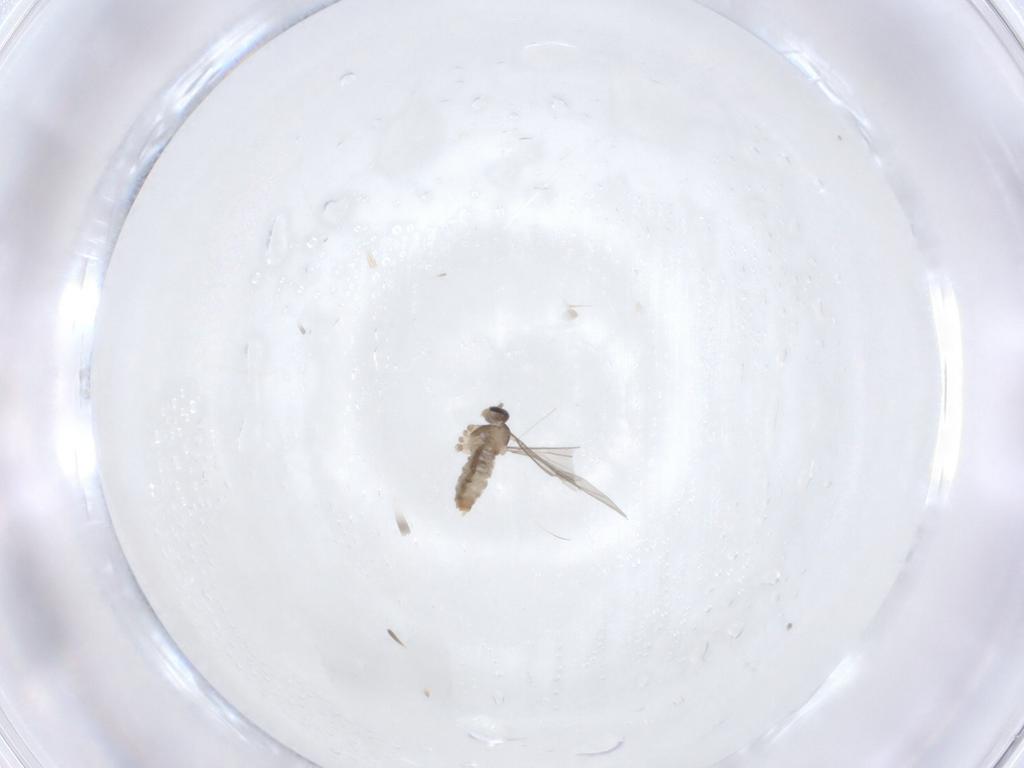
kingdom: Animalia
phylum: Arthropoda
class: Insecta
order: Diptera
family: Cecidomyiidae
